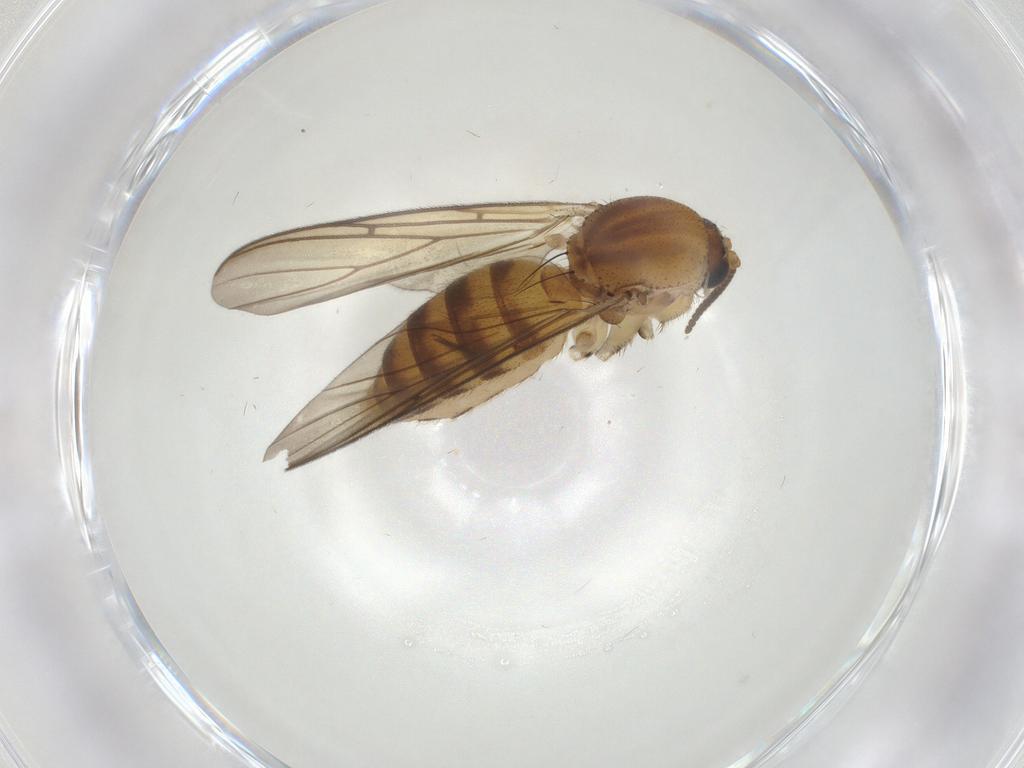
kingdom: Animalia
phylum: Arthropoda
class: Insecta
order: Diptera
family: Mycetophilidae
